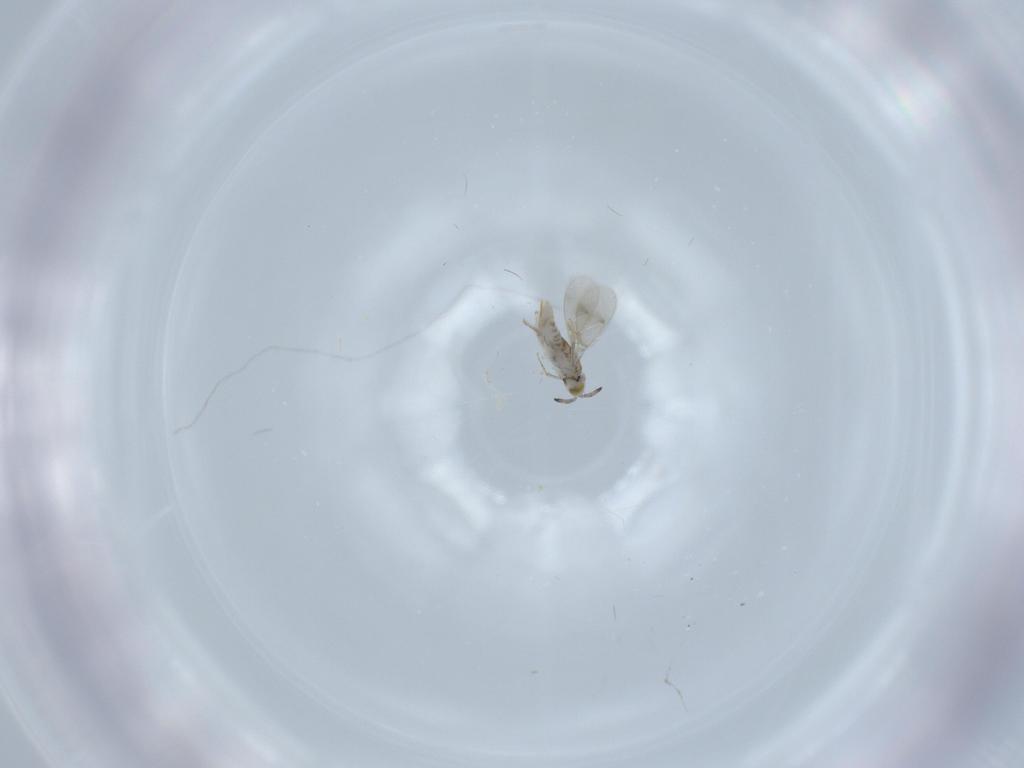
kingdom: Animalia
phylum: Arthropoda
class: Insecta
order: Hymenoptera
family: Aphelinidae
